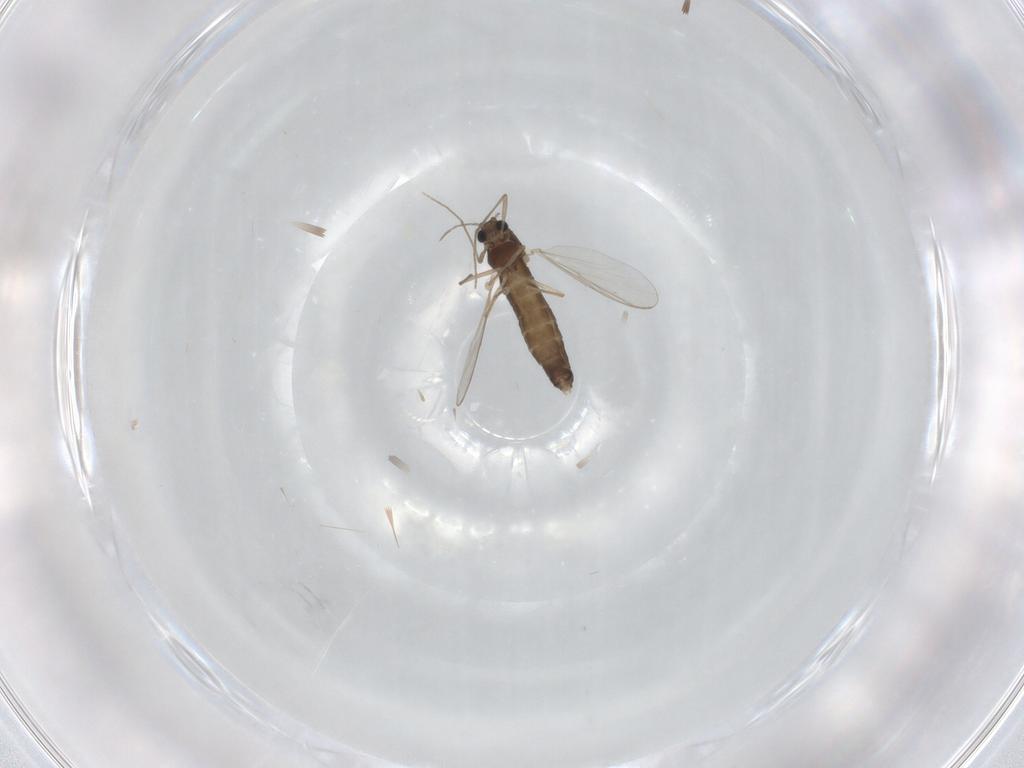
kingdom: Animalia
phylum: Arthropoda
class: Insecta
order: Diptera
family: Chironomidae
